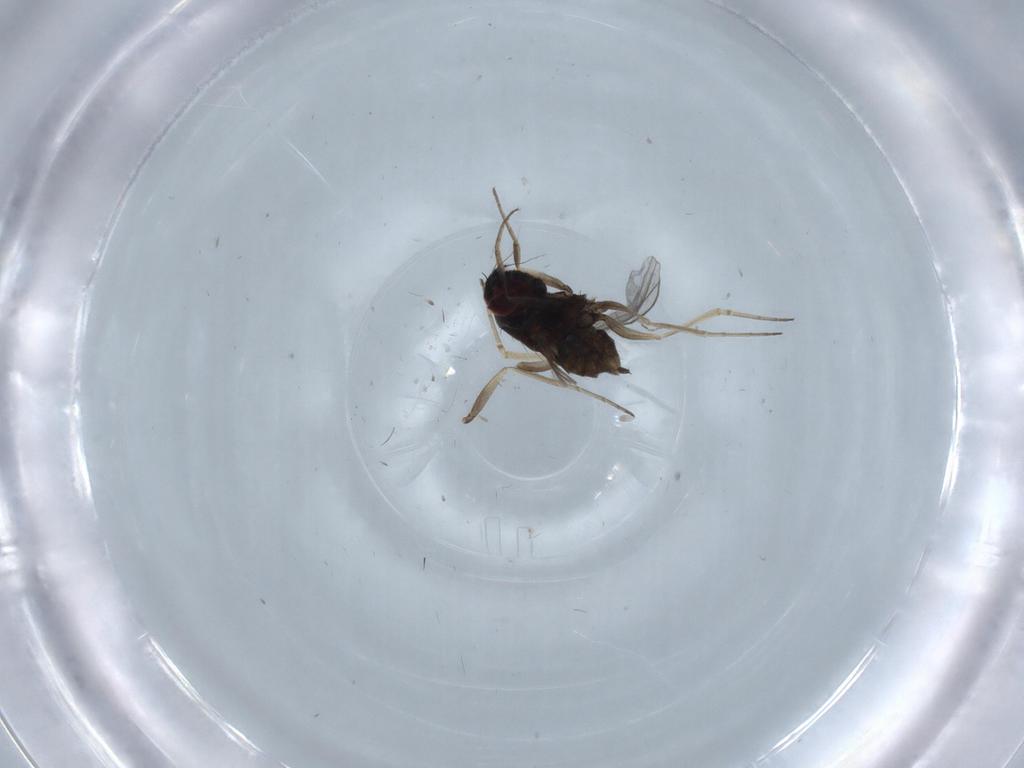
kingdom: Animalia
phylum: Arthropoda
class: Insecta
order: Diptera
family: Dolichopodidae
